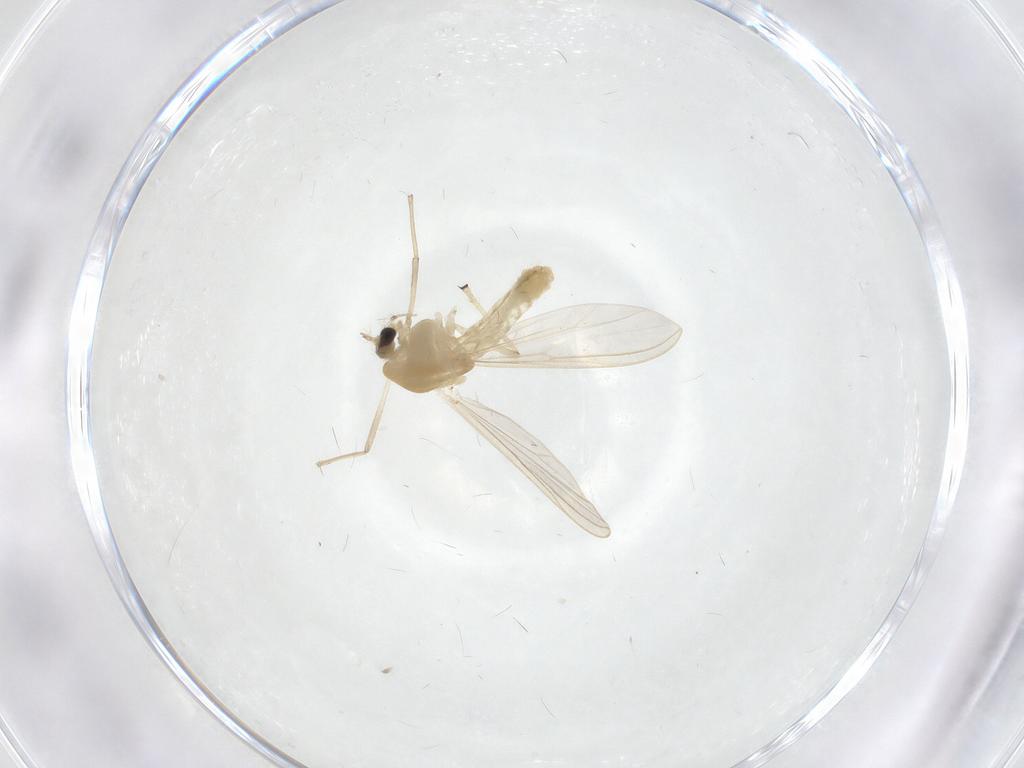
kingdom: Animalia
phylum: Arthropoda
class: Insecta
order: Diptera
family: Chironomidae
